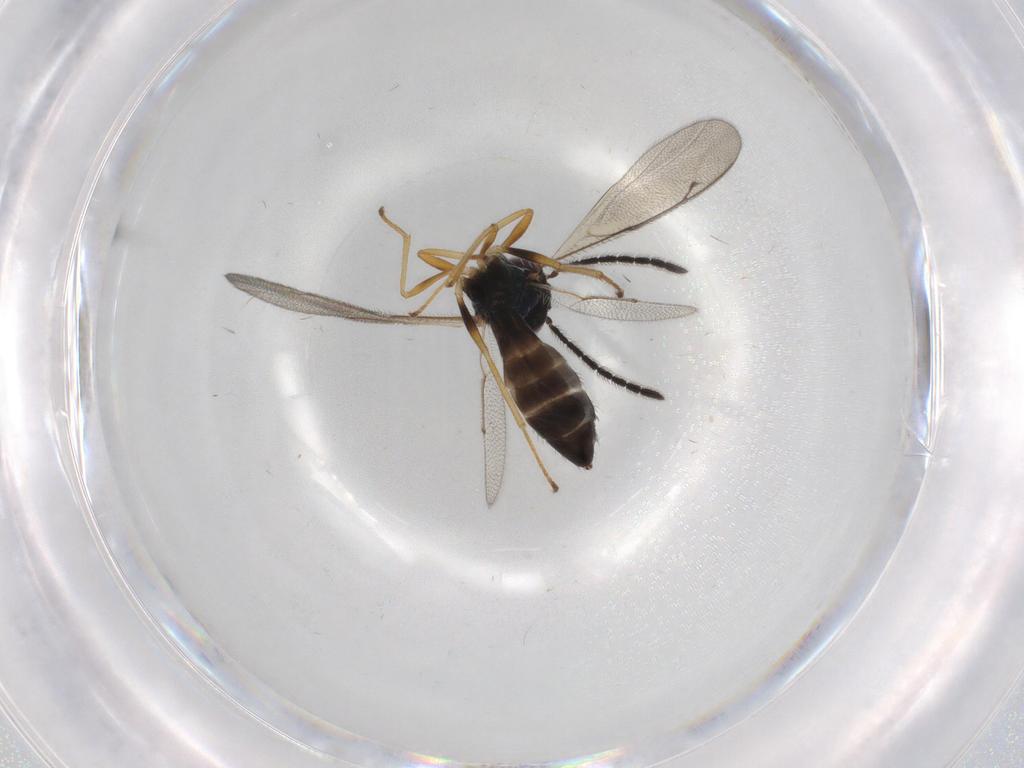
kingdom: Animalia
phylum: Arthropoda
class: Insecta
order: Hymenoptera
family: Pteromalidae
